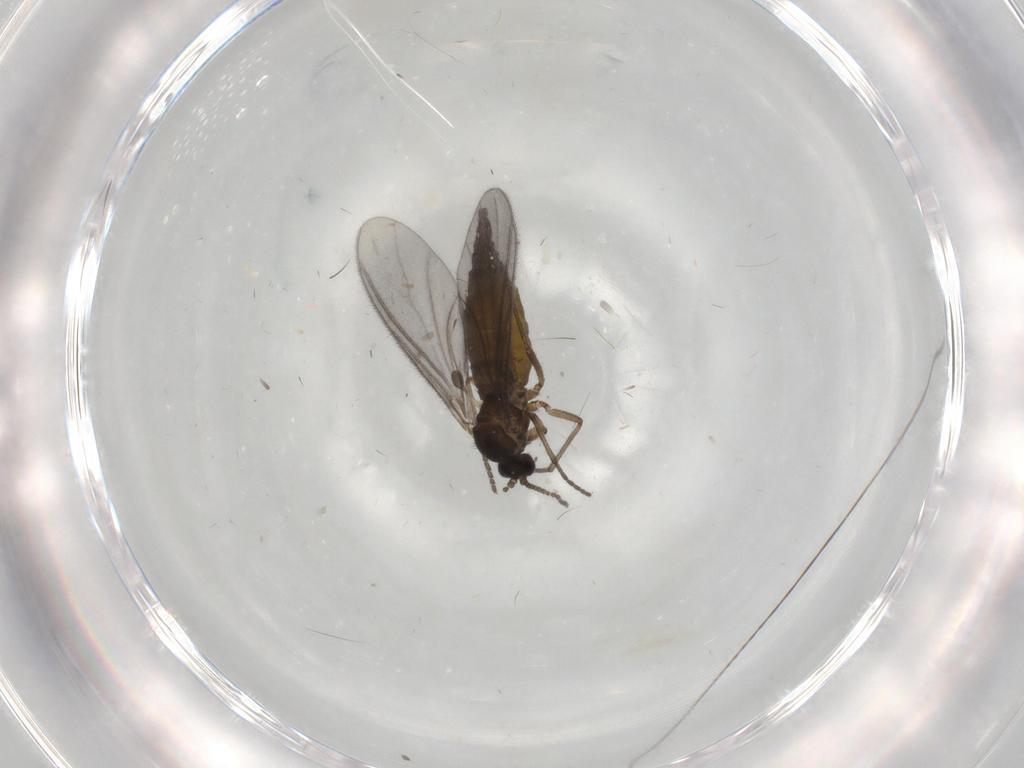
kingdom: Animalia
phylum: Arthropoda
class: Insecta
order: Diptera
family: Sciaridae
